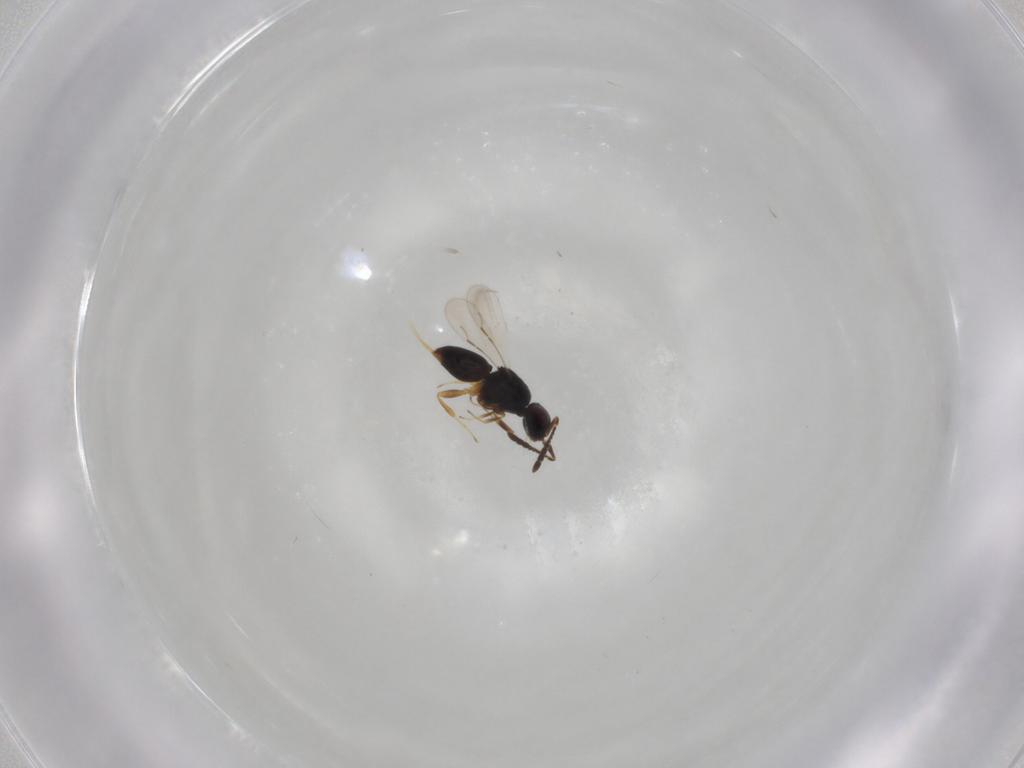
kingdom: Animalia
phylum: Arthropoda
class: Insecta
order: Hymenoptera
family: Ceraphronidae
